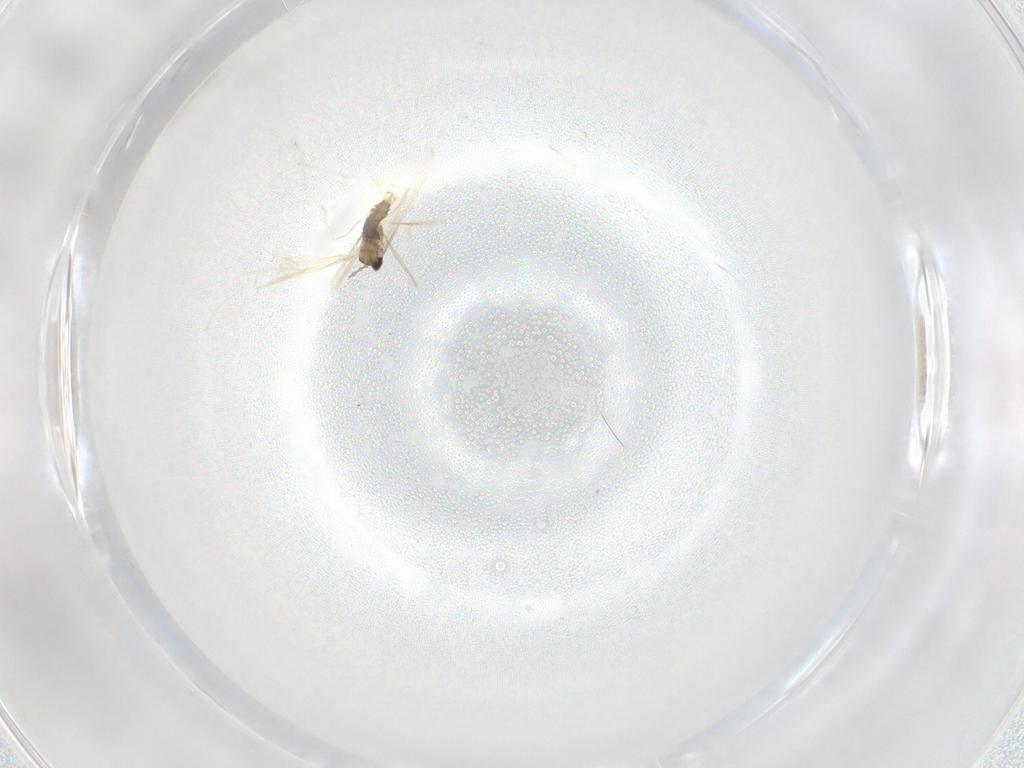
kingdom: Animalia
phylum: Arthropoda
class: Insecta
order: Diptera
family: Cecidomyiidae
